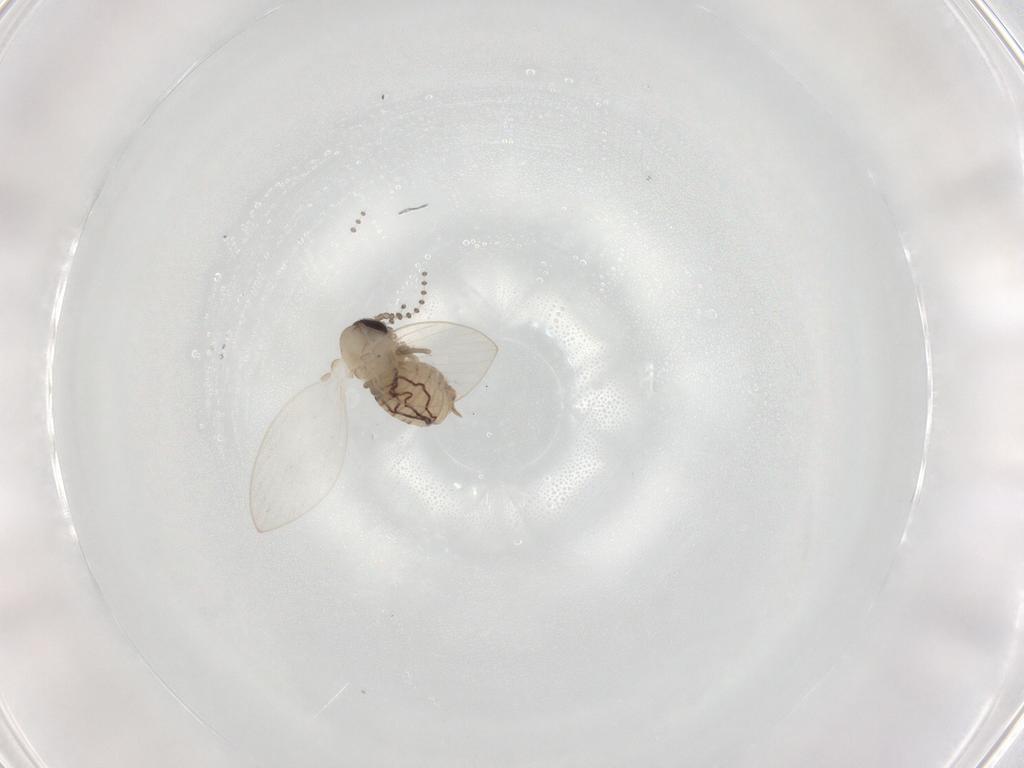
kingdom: Animalia
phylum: Arthropoda
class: Insecta
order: Diptera
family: Psychodidae
